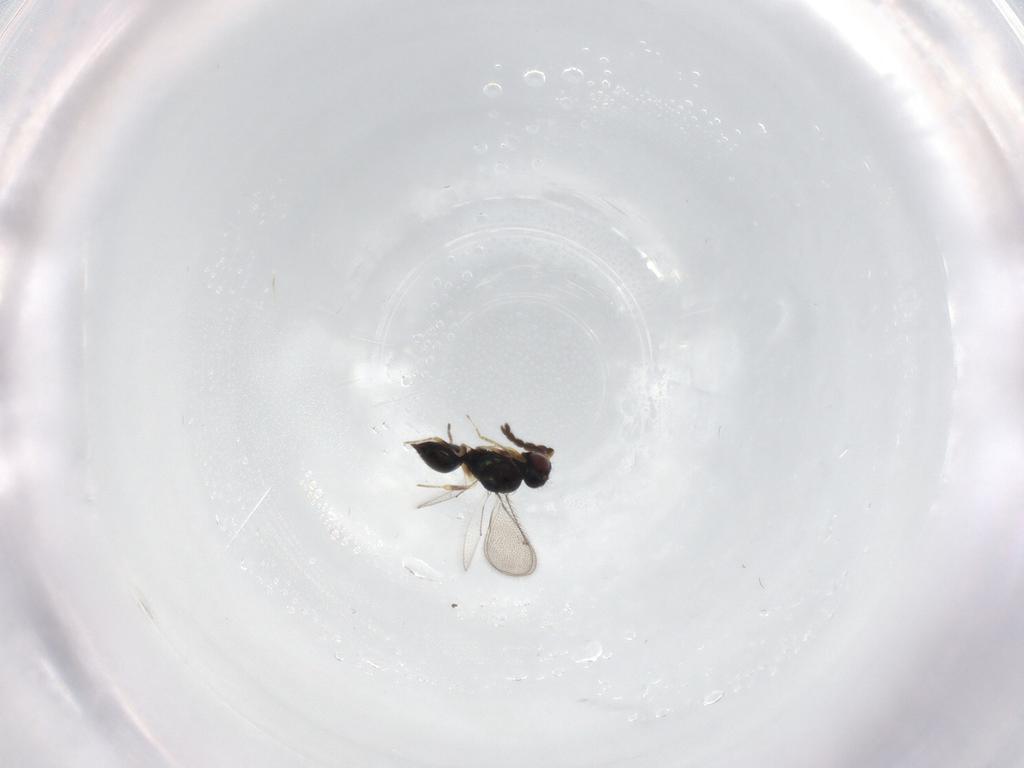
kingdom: Animalia
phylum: Arthropoda
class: Insecta
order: Hymenoptera
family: Eulophidae
